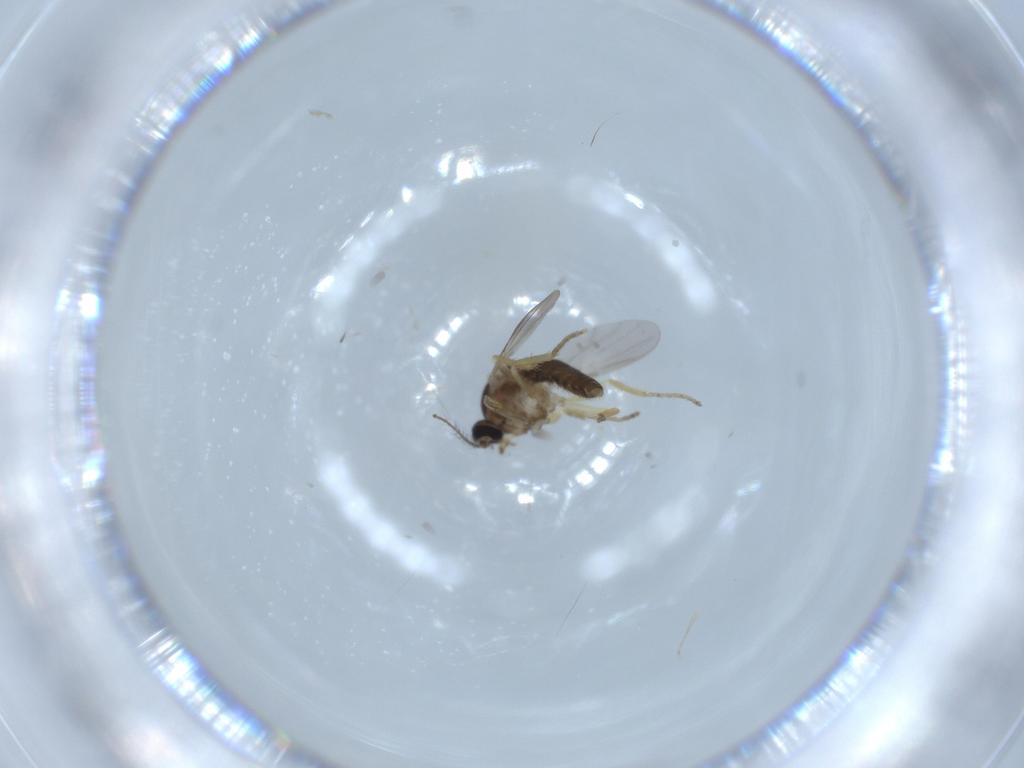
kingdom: Animalia
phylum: Arthropoda
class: Insecta
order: Diptera
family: Ceratopogonidae
